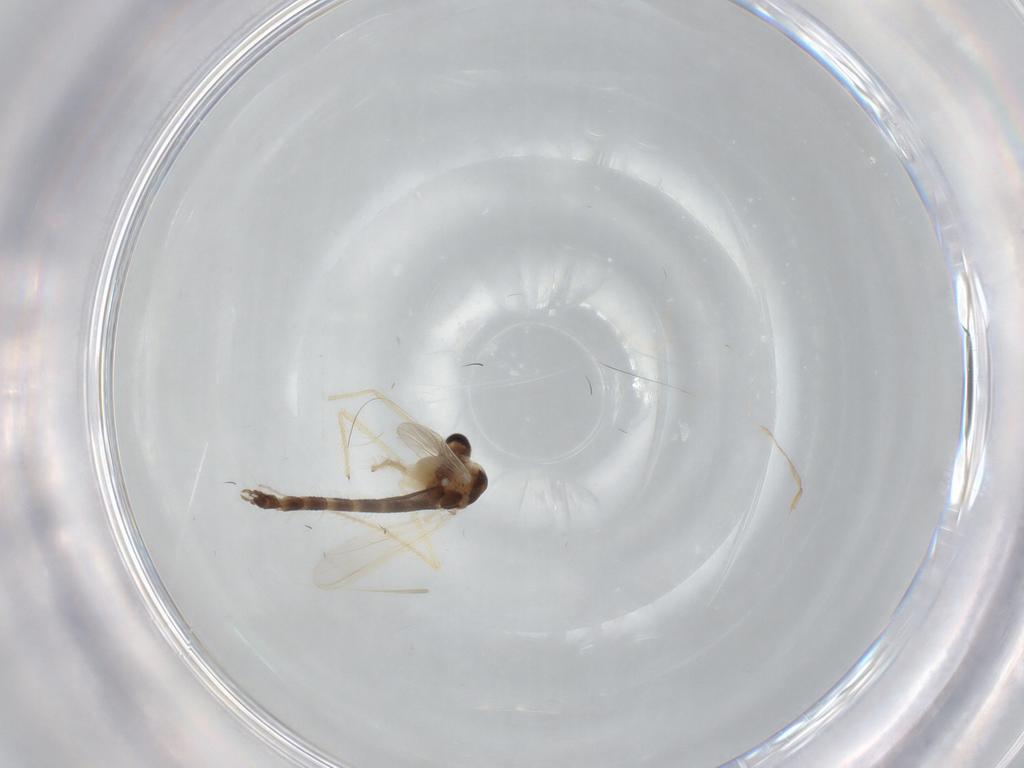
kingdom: Animalia
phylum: Arthropoda
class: Insecta
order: Diptera
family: Chironomidae
